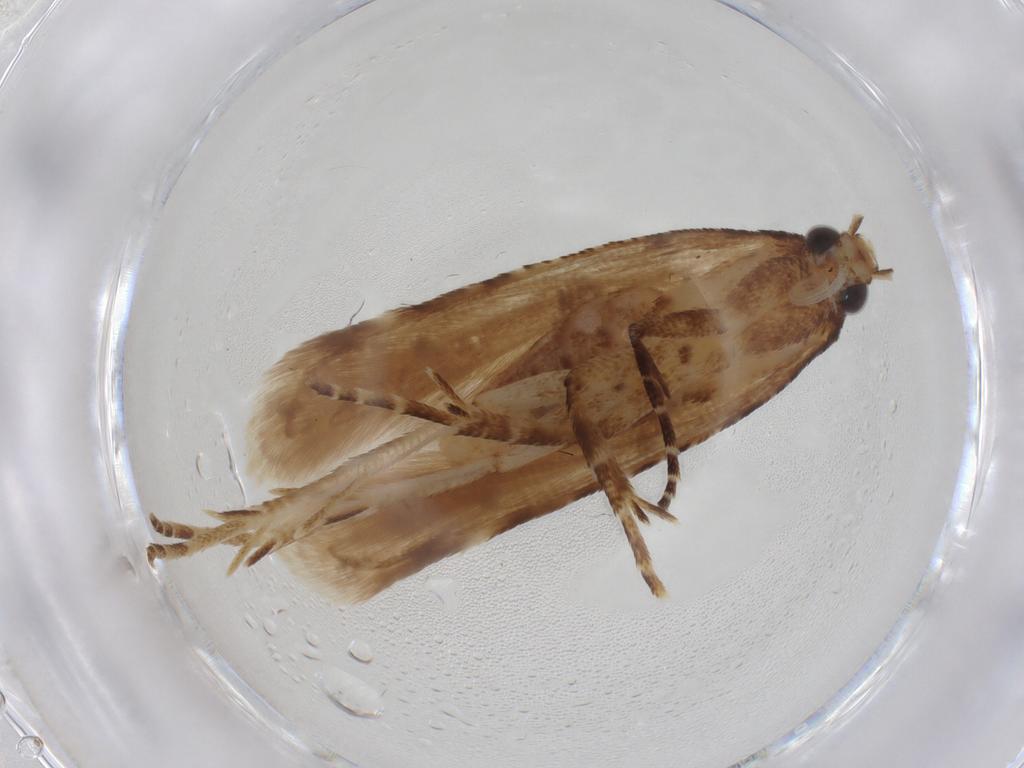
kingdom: Animalia
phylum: Arthropoda
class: Insecta
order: Lepidoptera
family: Gelechiidae
